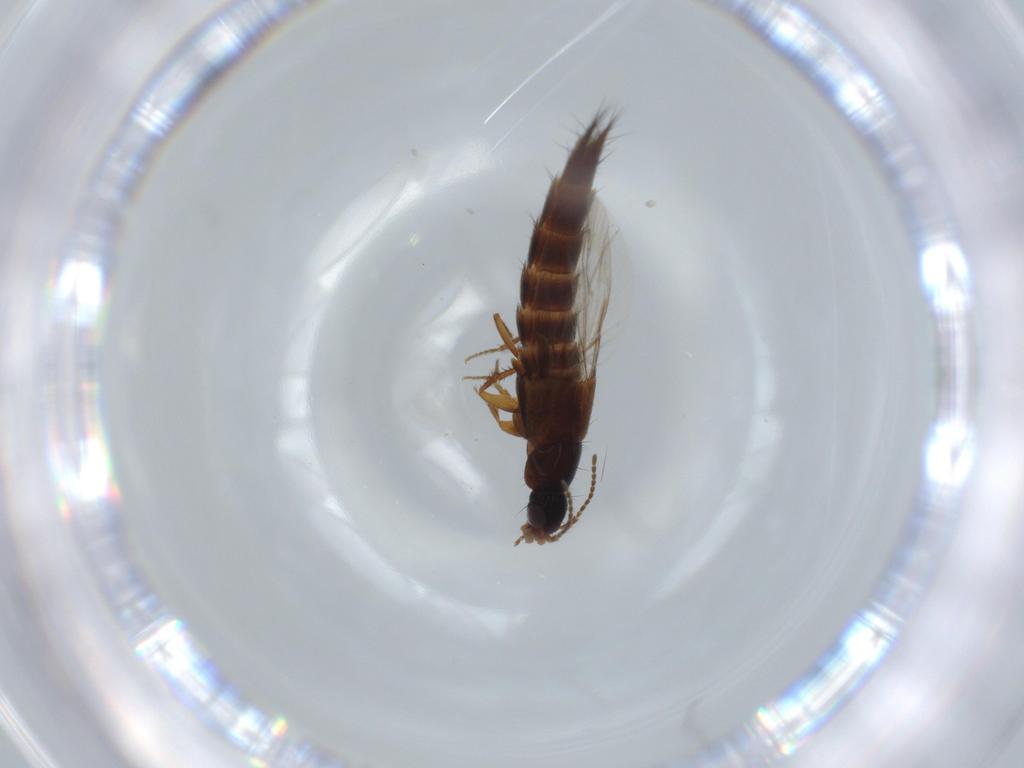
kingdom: Animalia
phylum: Arthropoda
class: Insecta
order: Coleoptera
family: Staphylinidae
